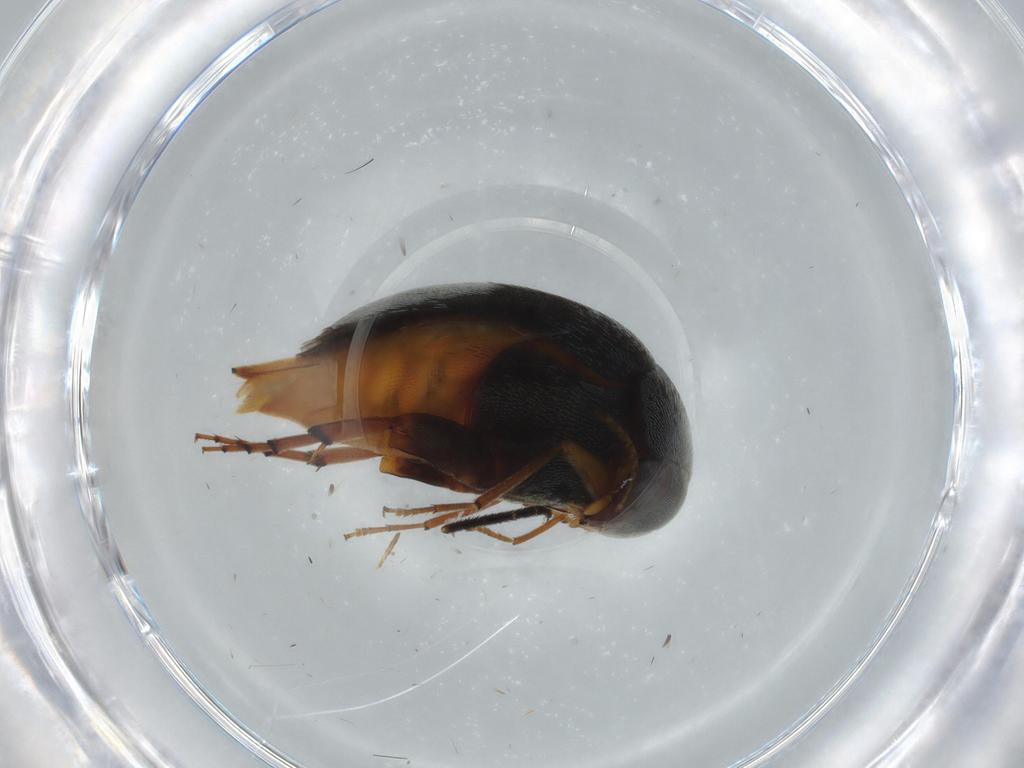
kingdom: Animalia
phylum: Arthropoda
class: Insecta
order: Coleoptera
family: Mordellidae
